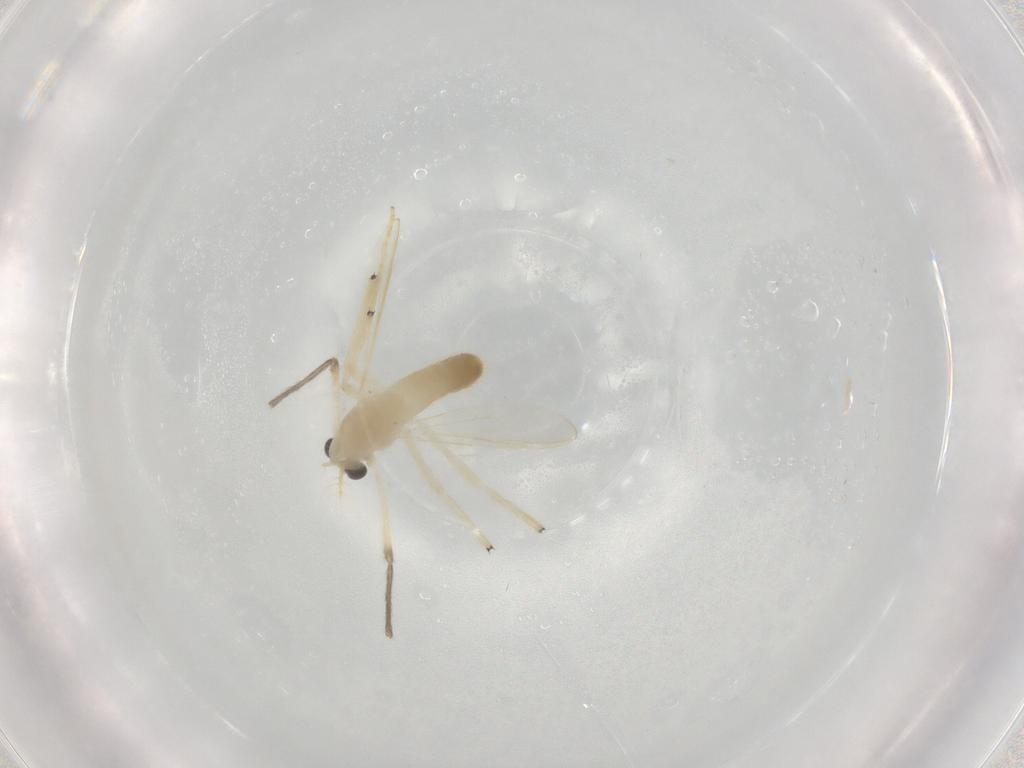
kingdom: Animalia
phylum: Arthropoda
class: Insecta
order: Diptera
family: Chironomidae
